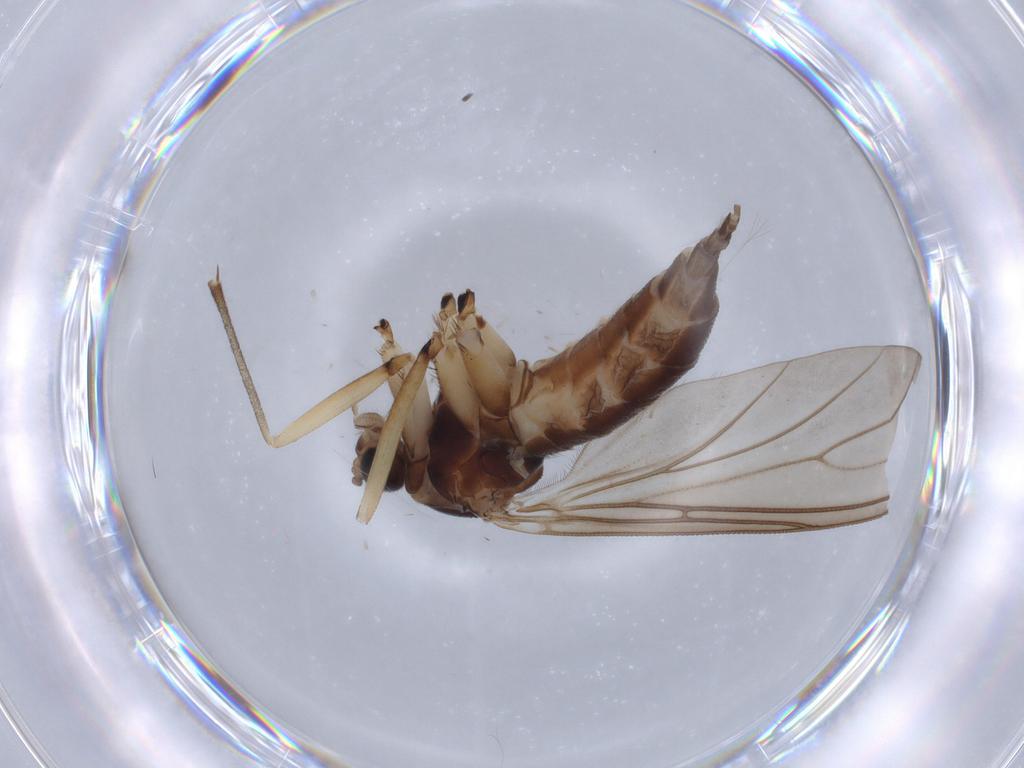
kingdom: Animalia
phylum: Arthropoda
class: Insecta
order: Diptera
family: Sciaridae
